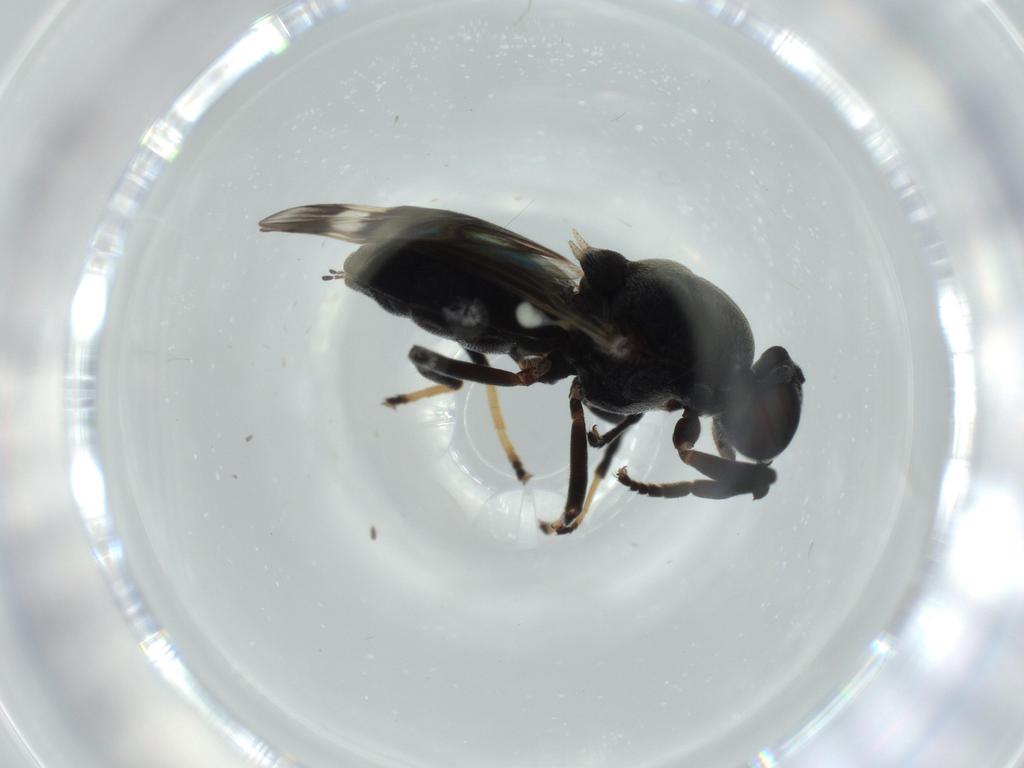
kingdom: Animalia
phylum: Arthropoda
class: Insecta
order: Diptera
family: Stratiomyidae
